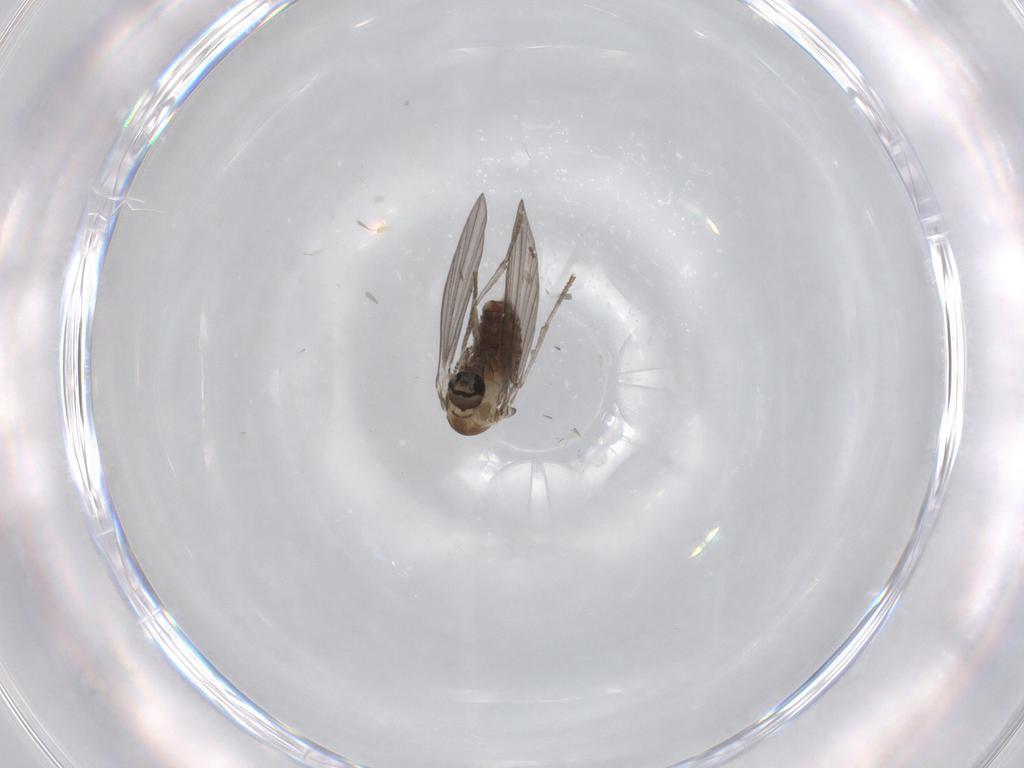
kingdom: Animalia
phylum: Arthropoda
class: Insecta
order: Diptera
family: Psychodidae
